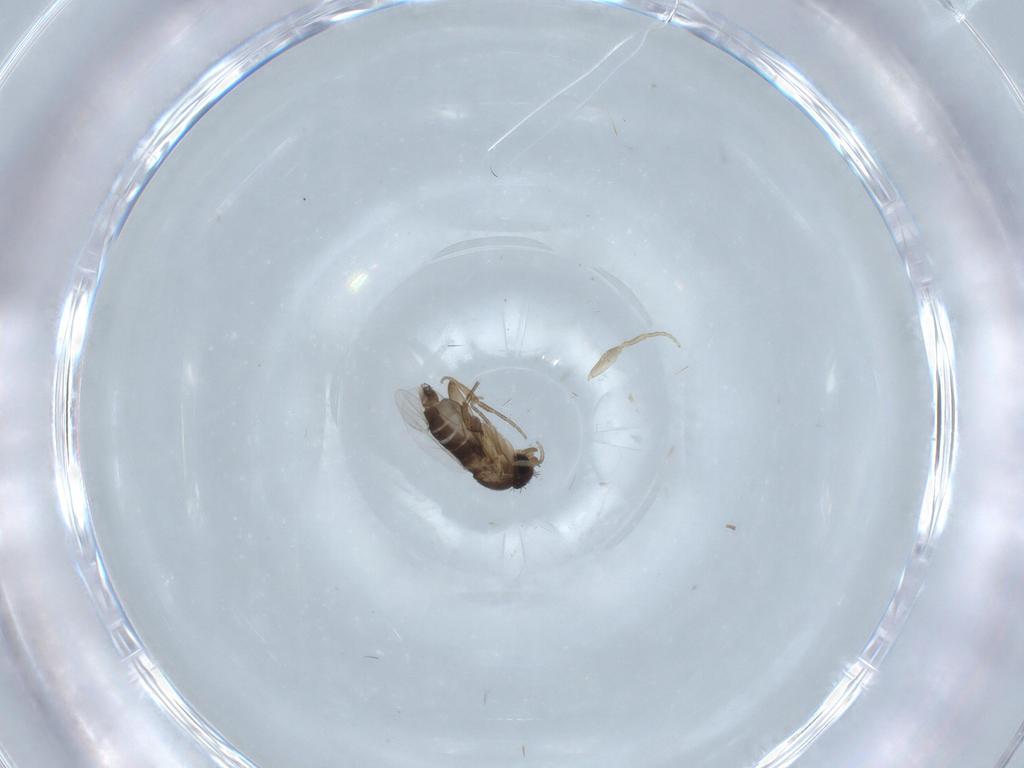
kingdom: Animalia
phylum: Arthropoda
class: Insecta
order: Diptera
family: Phoridae
